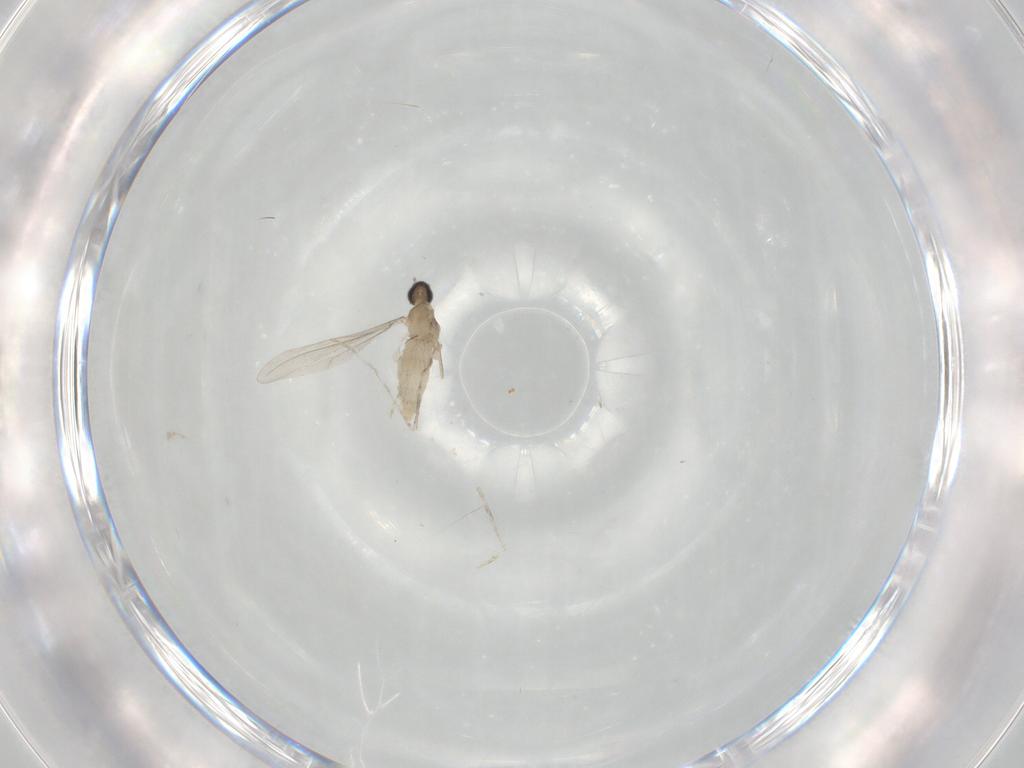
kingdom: Animalia
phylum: Arthropoda
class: Insecta
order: Diptera
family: Cecidomyiidae
